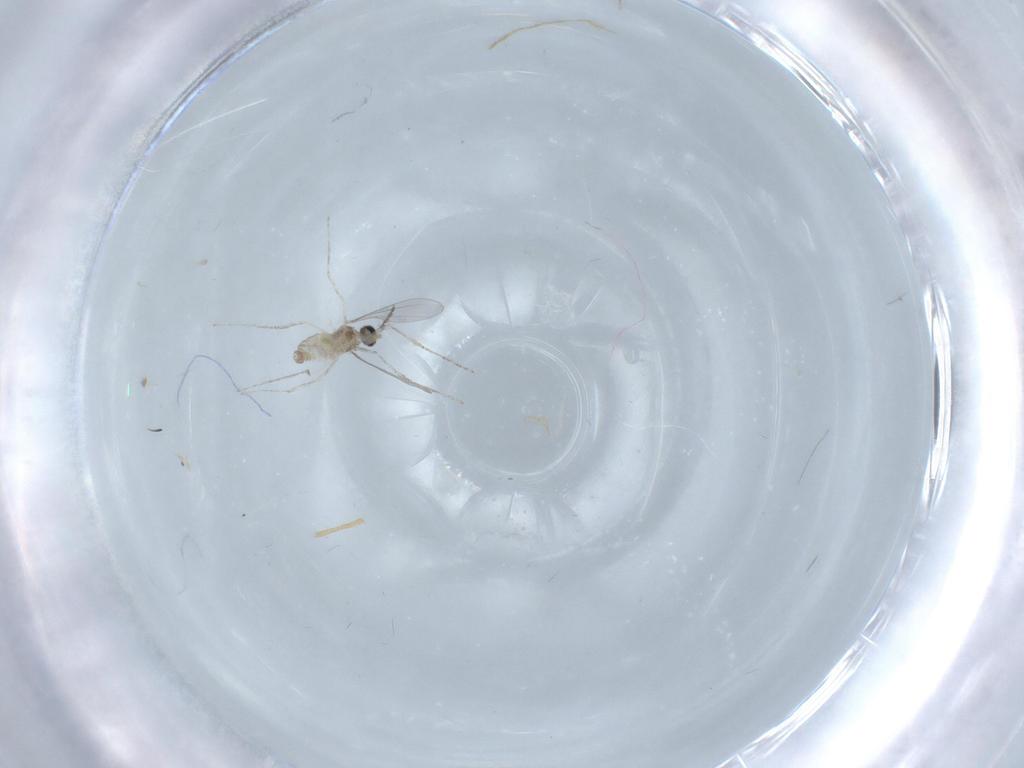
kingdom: Animalia
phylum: Arthropoda
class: Insecta
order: Diptera
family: Cecidomyiidae
